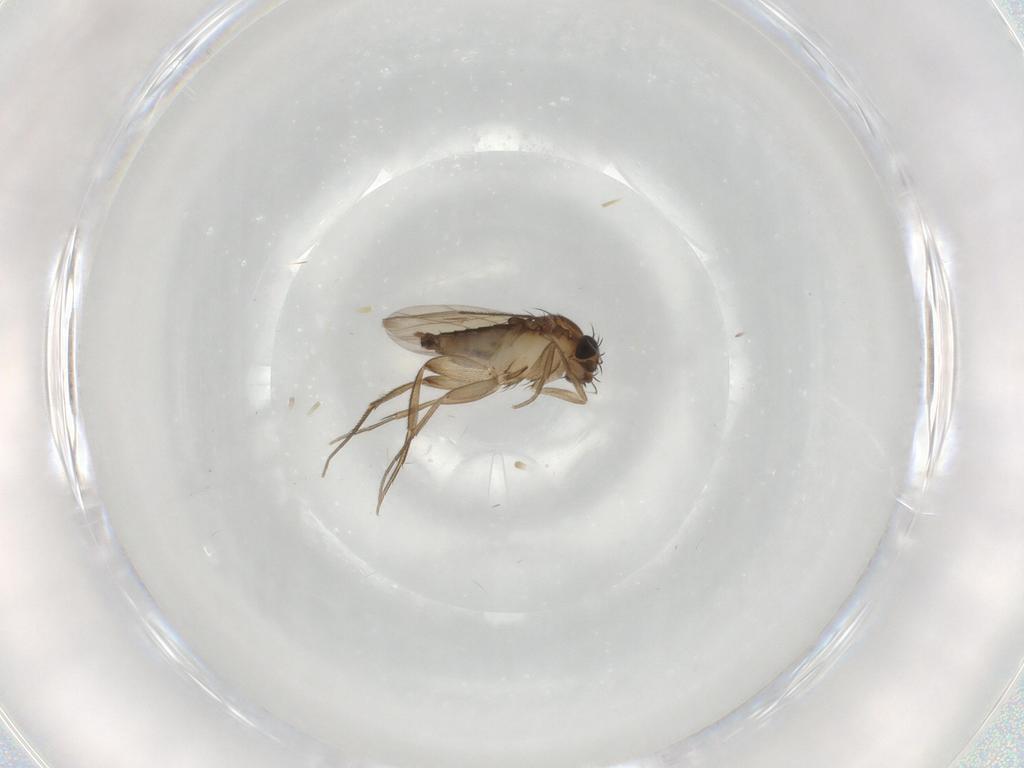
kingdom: Animalia
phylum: Arthropoda
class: Insecta
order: Diptera
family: Phoridae
